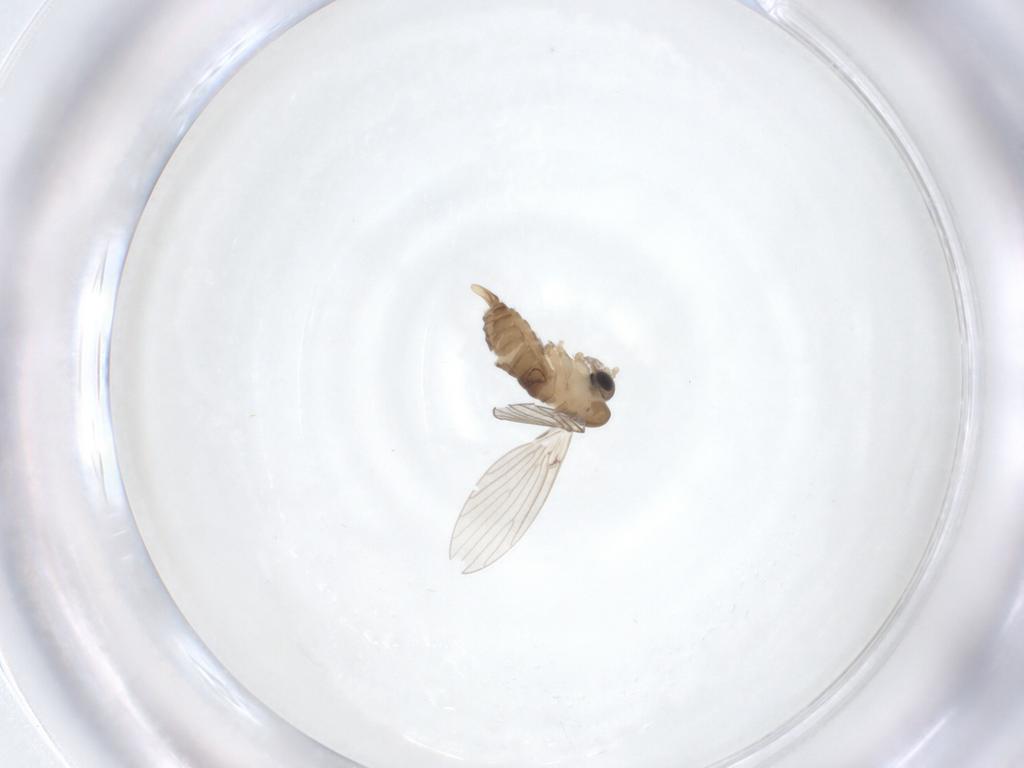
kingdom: Animalia
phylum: Arthropoda
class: Insecta
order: Diptera
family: Psychodidae
